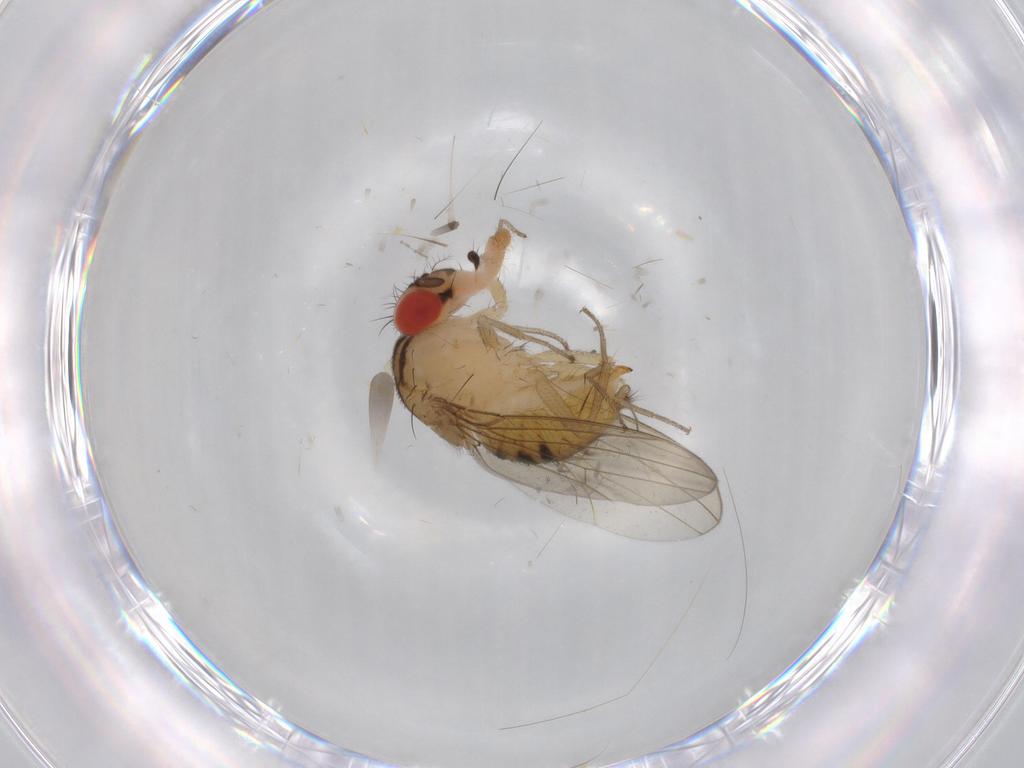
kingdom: Animalia
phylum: Arthropoda
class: Insecta
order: Diptera
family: Drosophilidae
